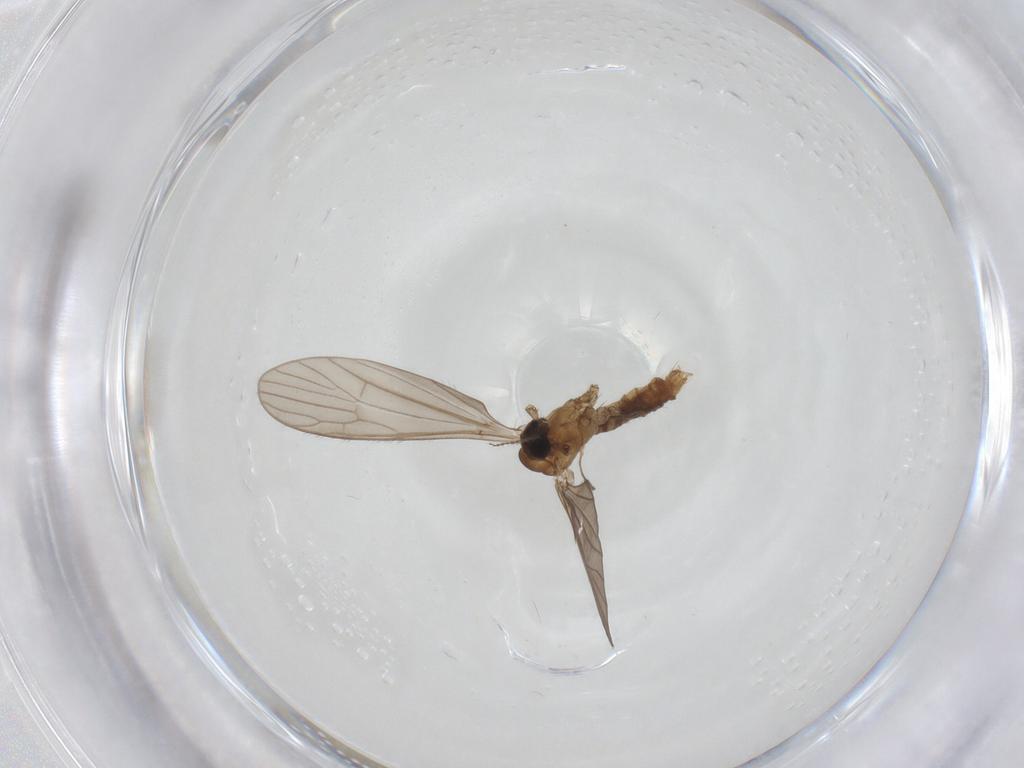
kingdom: Animalia
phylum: Arthropoda
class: Insecta
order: Diptera
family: Limoniidae
